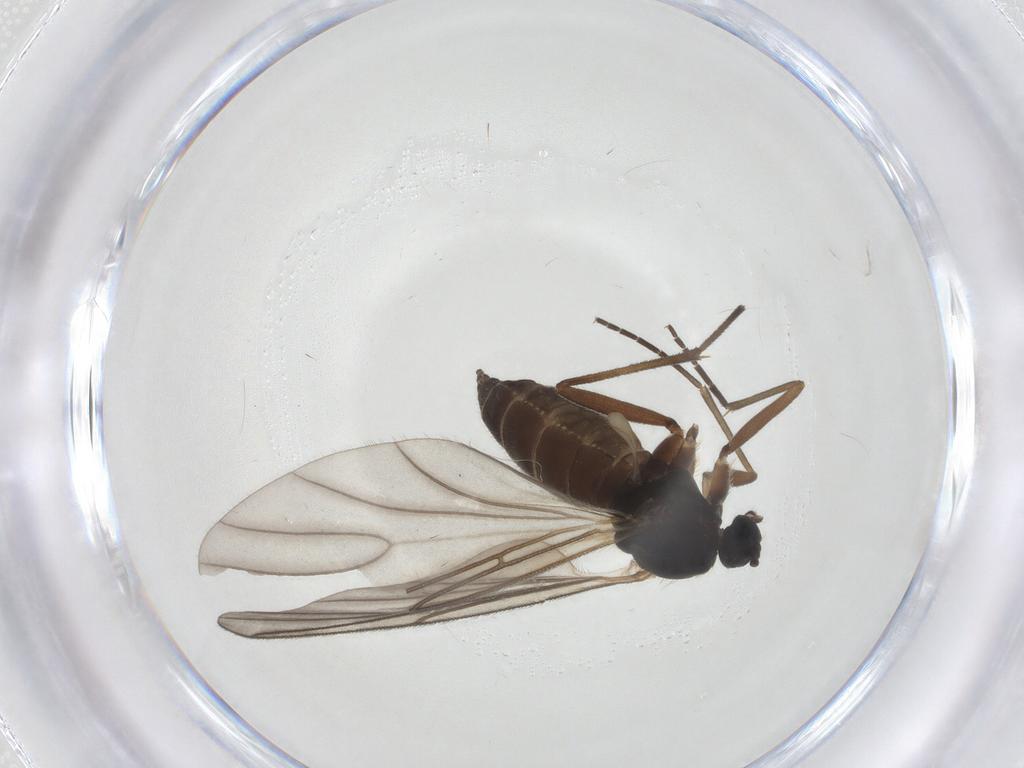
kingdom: Animalia
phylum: Arthropoda
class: Insecta
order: Diptera
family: Sciaridae
